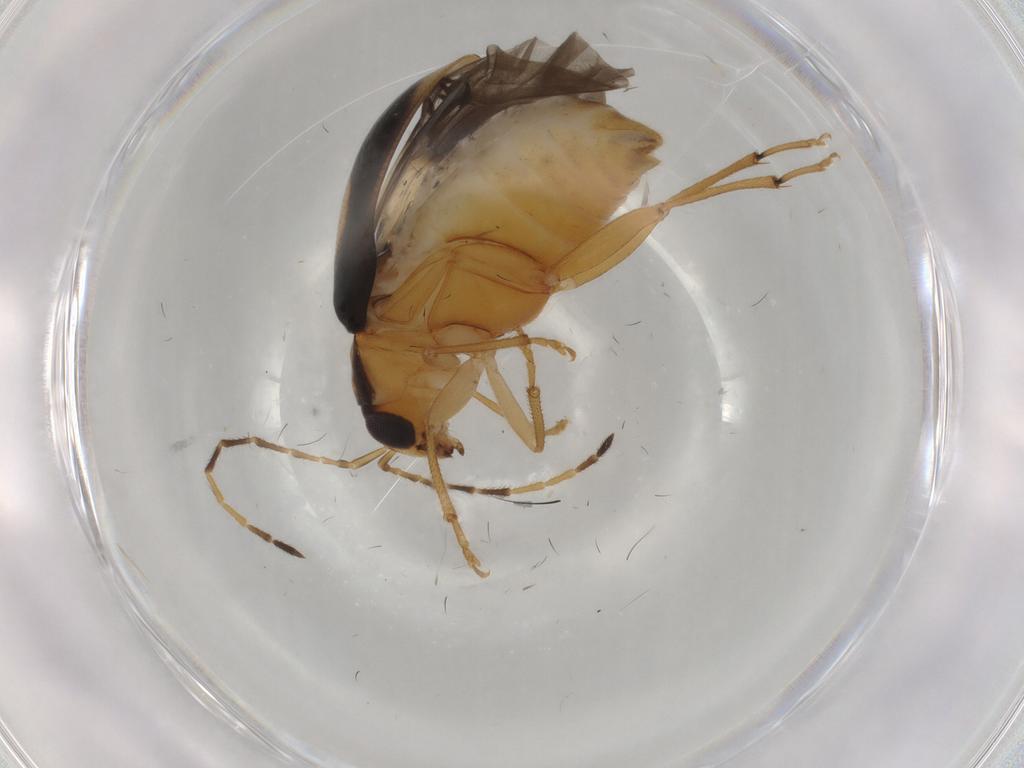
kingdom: Animalia
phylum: Arthropoda
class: Insecta
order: Coleoptera
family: Chrysomelidae
